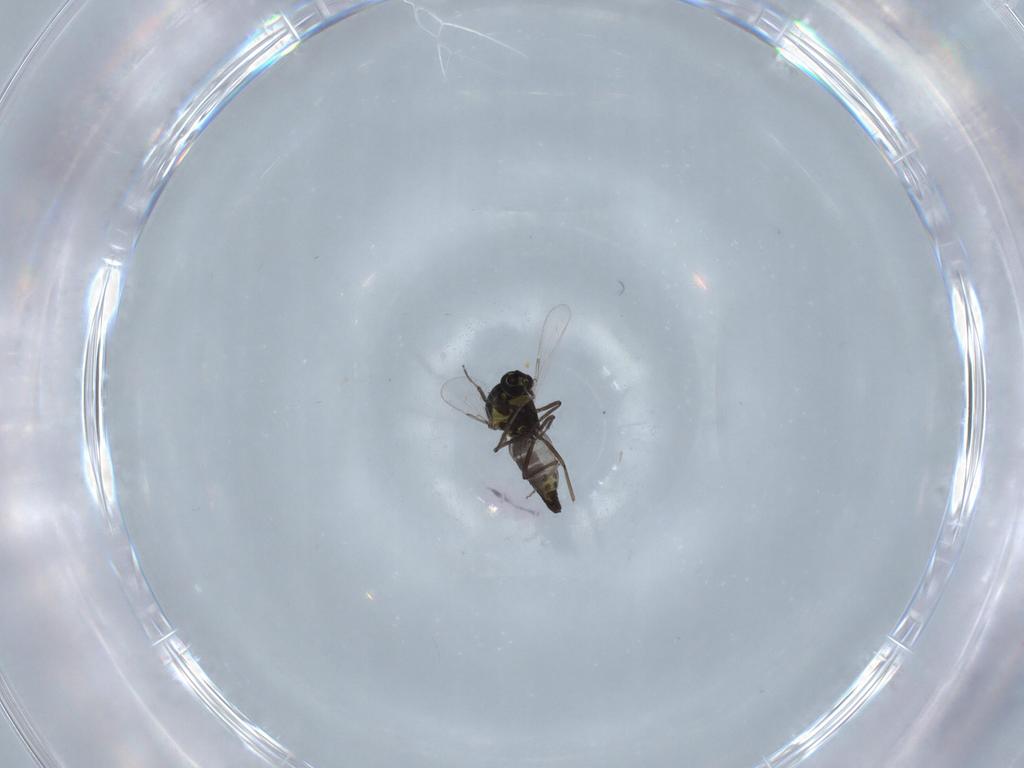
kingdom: Animalia
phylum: Arthropoda
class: Insecta
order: Diptera
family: Ceratopogonidae
